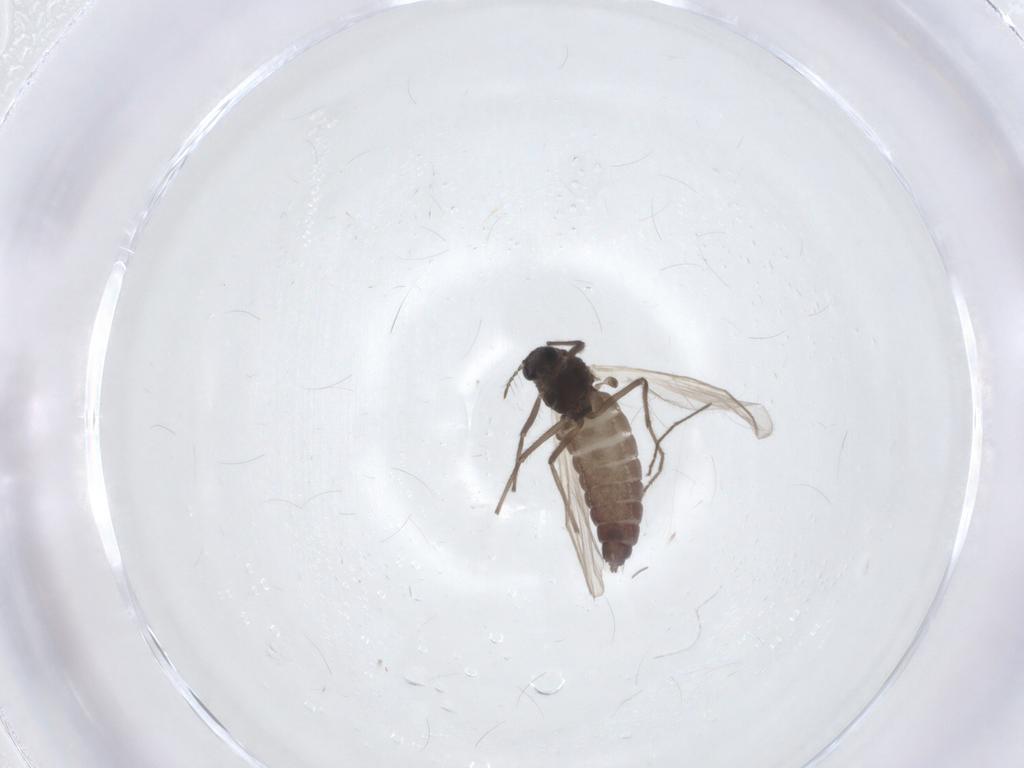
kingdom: Animalia
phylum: Arthropoda
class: Insecta
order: Diptera
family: Chironomidae
